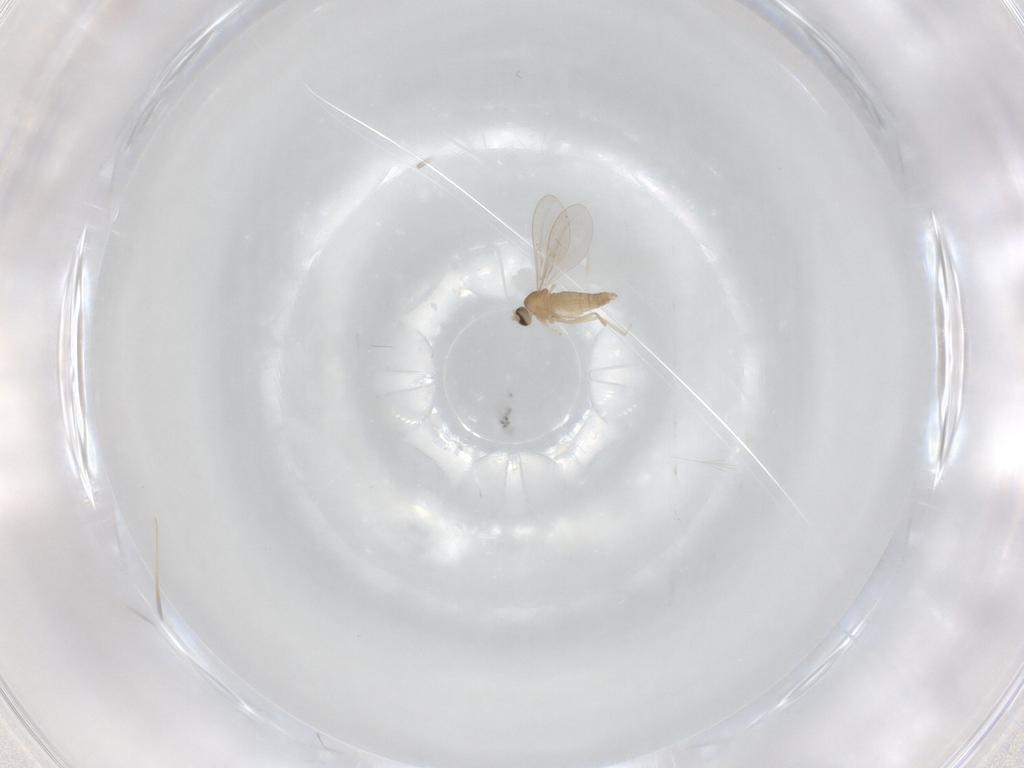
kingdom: Animalia
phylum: Arthropoda
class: Insecta
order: Diptera
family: Cecidomyiidae
